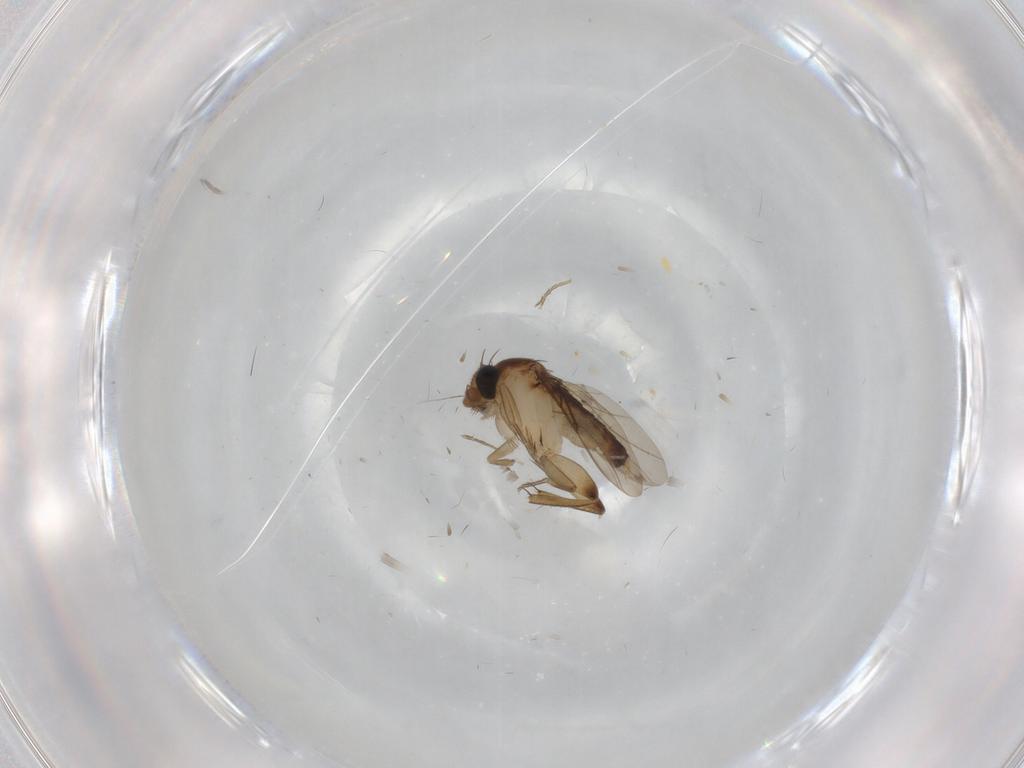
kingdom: Animalia
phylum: Arthropoda
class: Insecta
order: Diptera
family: Phoridae
